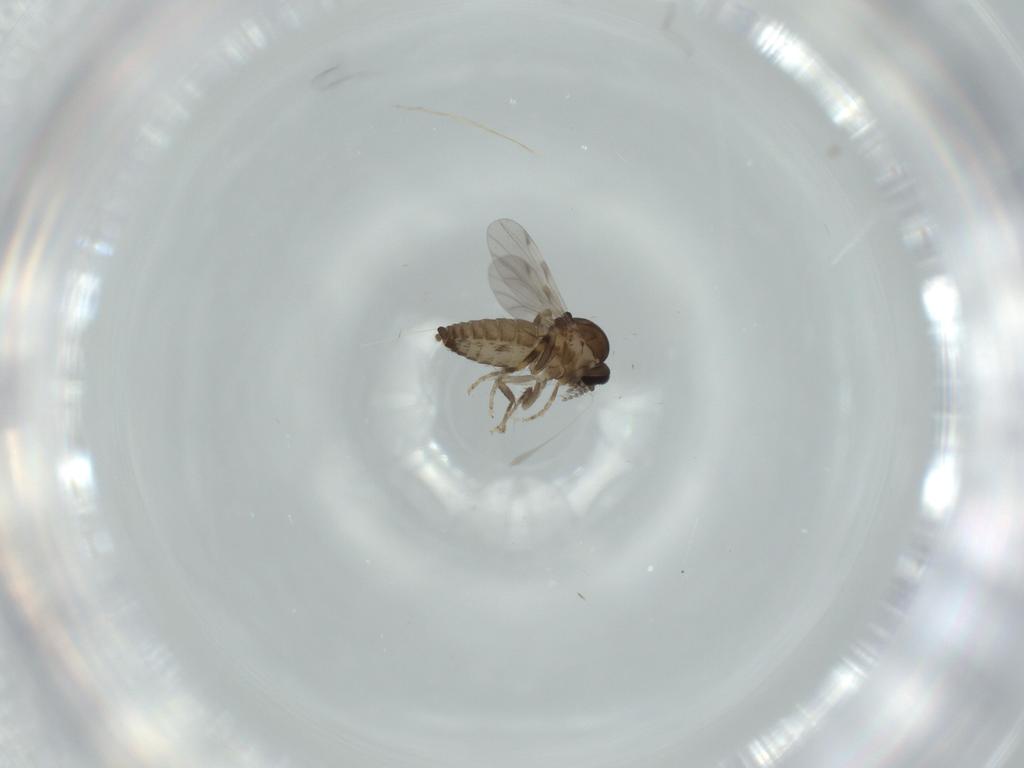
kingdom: Animalia
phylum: Arthropoda
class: Insecta
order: Diptera
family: Ceratopogonidae
